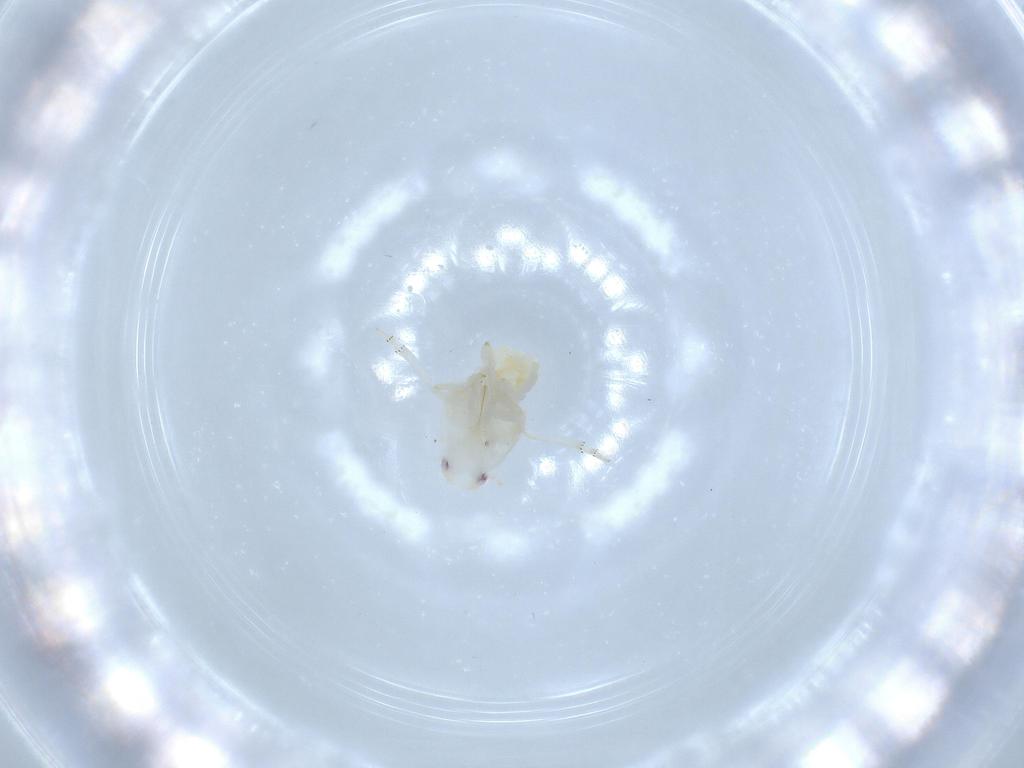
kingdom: Animalia
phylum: Arthropoda
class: Insecta
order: Hemiptera
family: Flatidae
